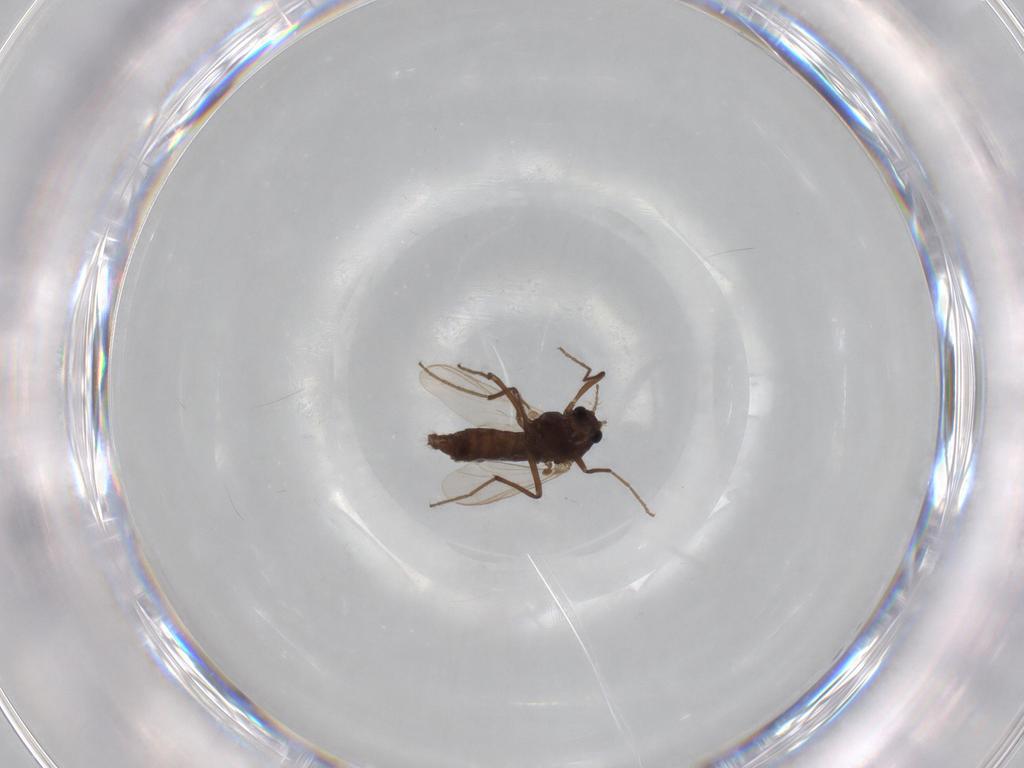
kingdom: Animalia
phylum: Arthropoda
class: Insecta
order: Diptera
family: Chironomidae
